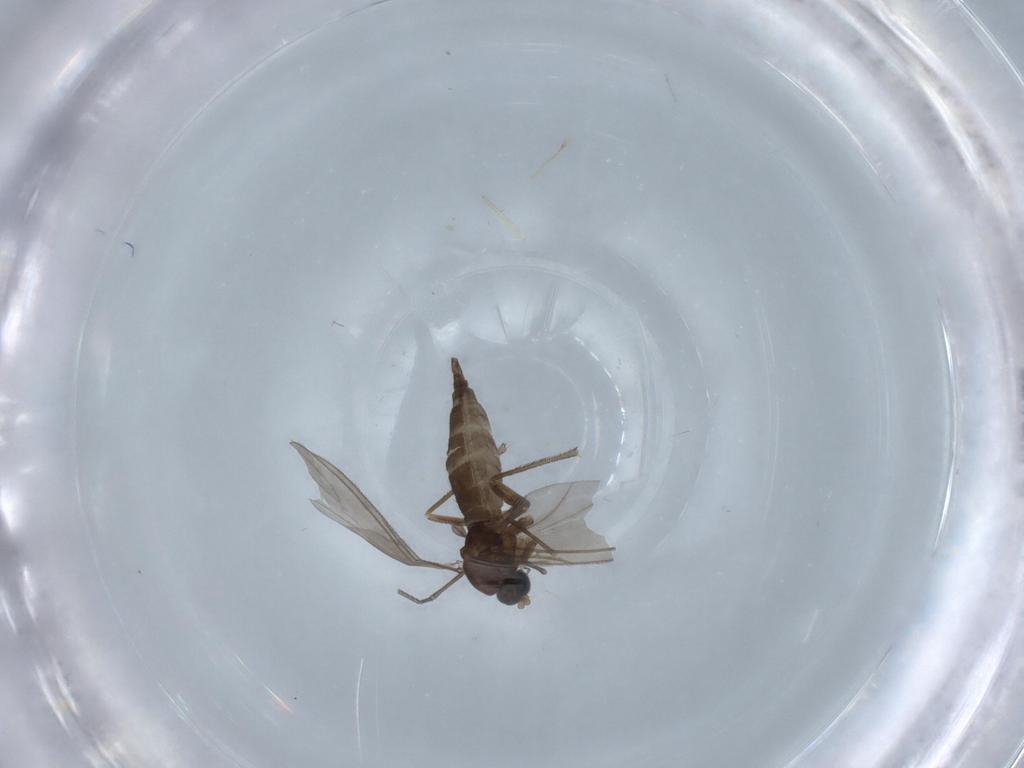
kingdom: Animalia
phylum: Arthropoda
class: Insecta
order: Diptera
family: Sciaridae
